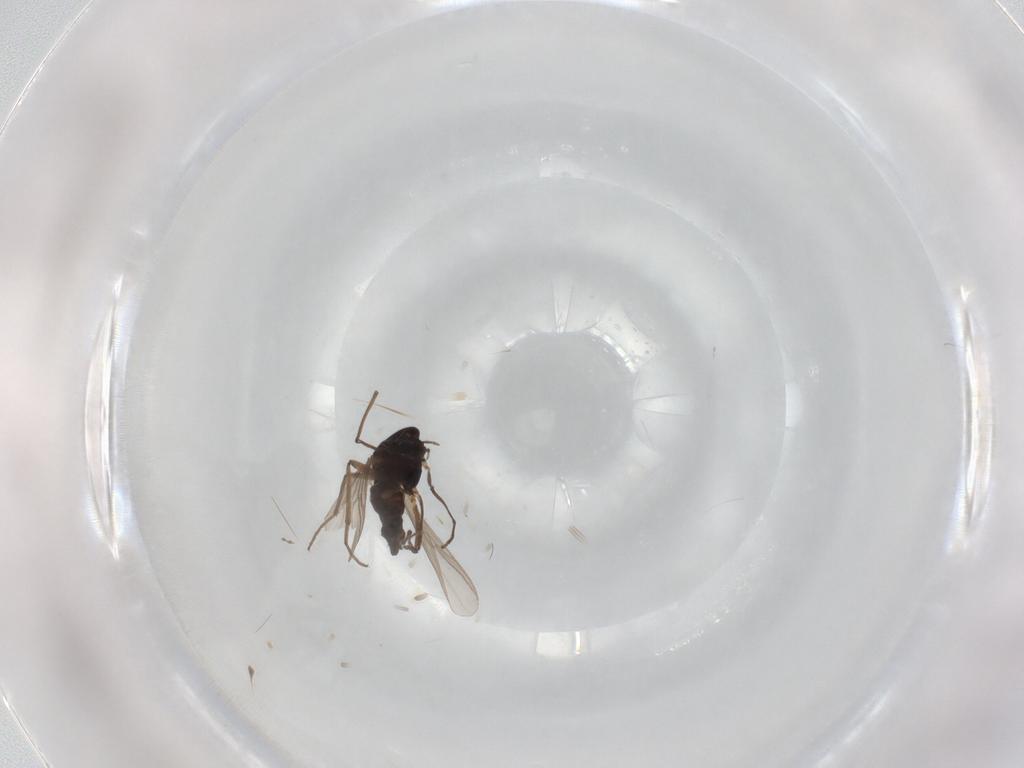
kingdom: Animalia
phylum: Arthropoda
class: Insecta
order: Diptera
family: Chironomidae
